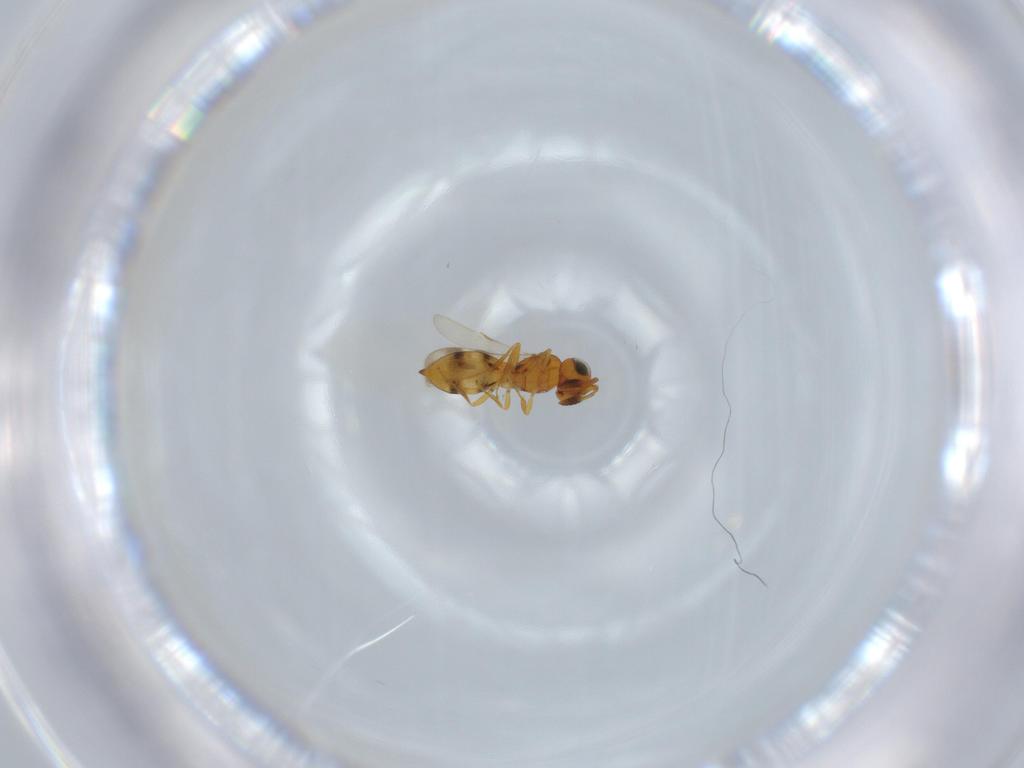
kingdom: Animalia
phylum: Arthropoda
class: Insecta
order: Hymenoptera
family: Scelionidae
